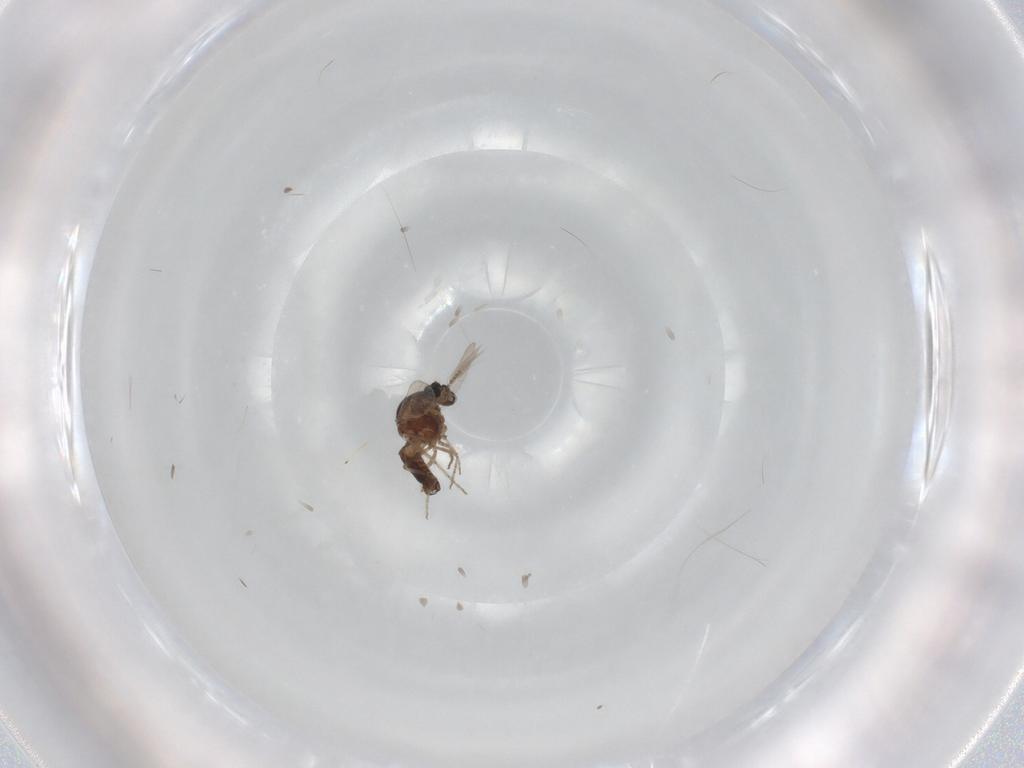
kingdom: Animalia
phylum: Arthropoda
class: Insecta
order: Diptera
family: Ceratopogonidae
